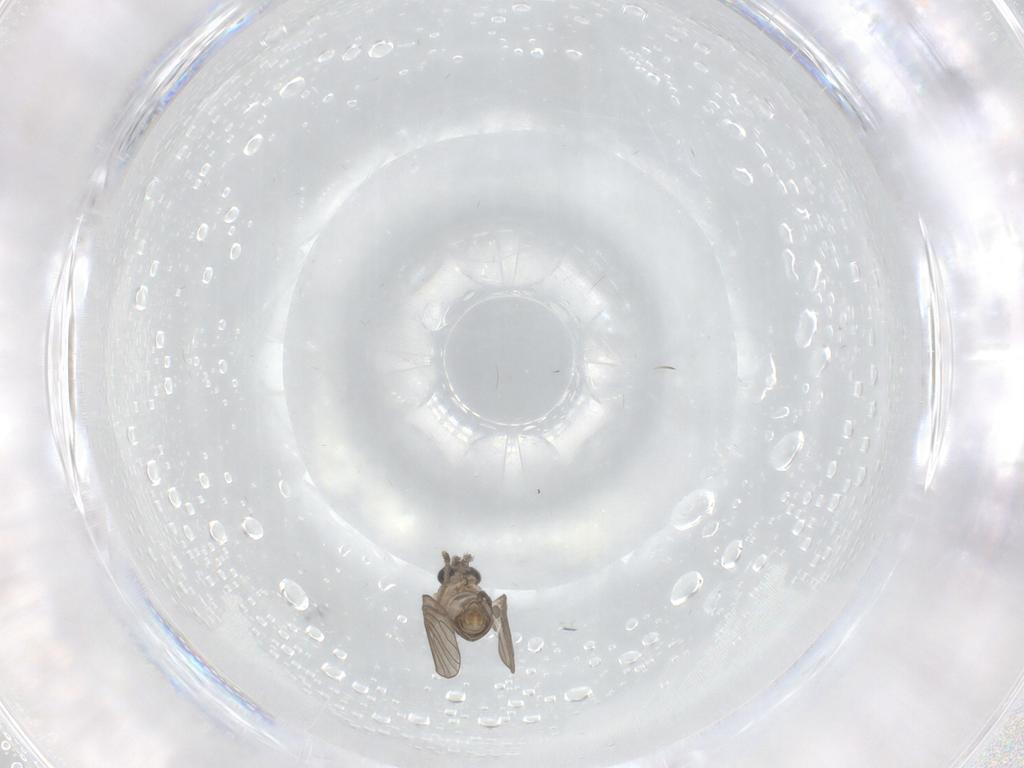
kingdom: Animalia
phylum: Arthropoda
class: Insecta
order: Diptera
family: Psychodidae
